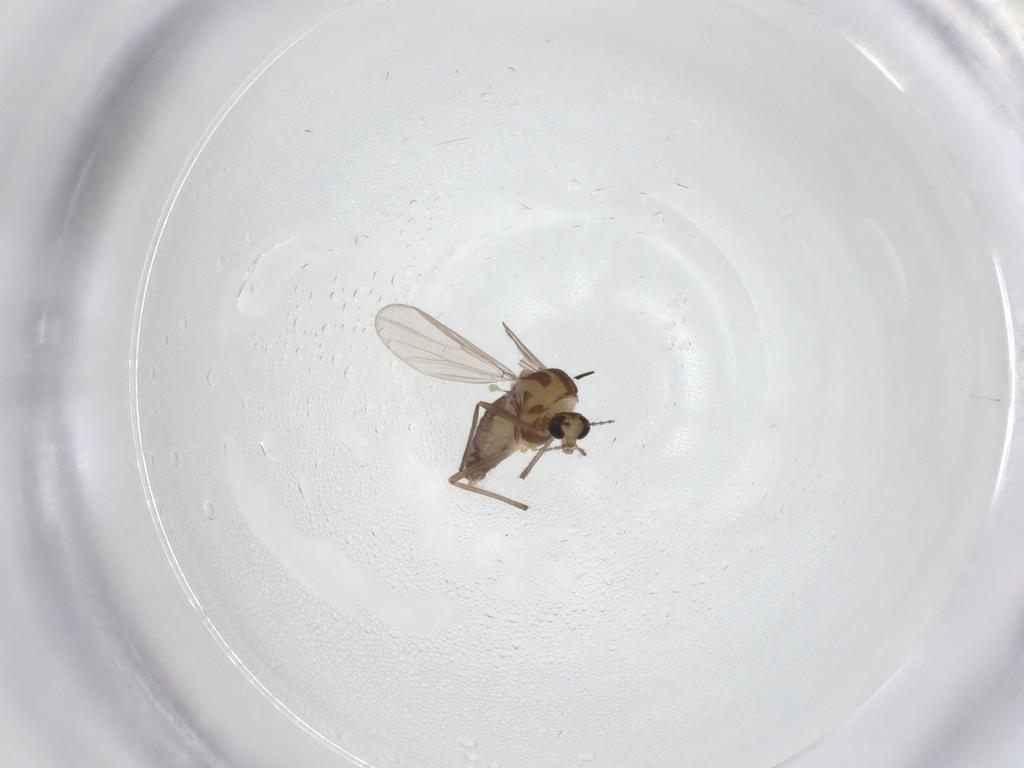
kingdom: Animalia
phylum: Arthropoda
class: Insecta
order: Diptera
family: Chironomidae
